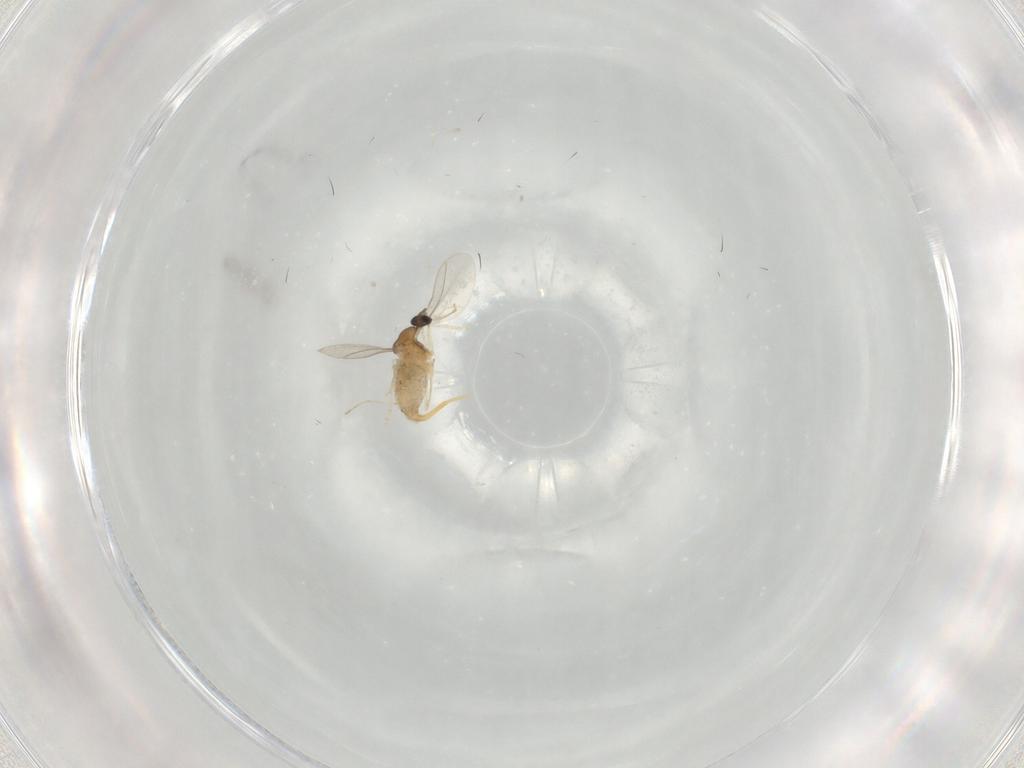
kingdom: Animalia
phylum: Arthropoda
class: Insecta
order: Diptera
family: Cecidomyiidae
